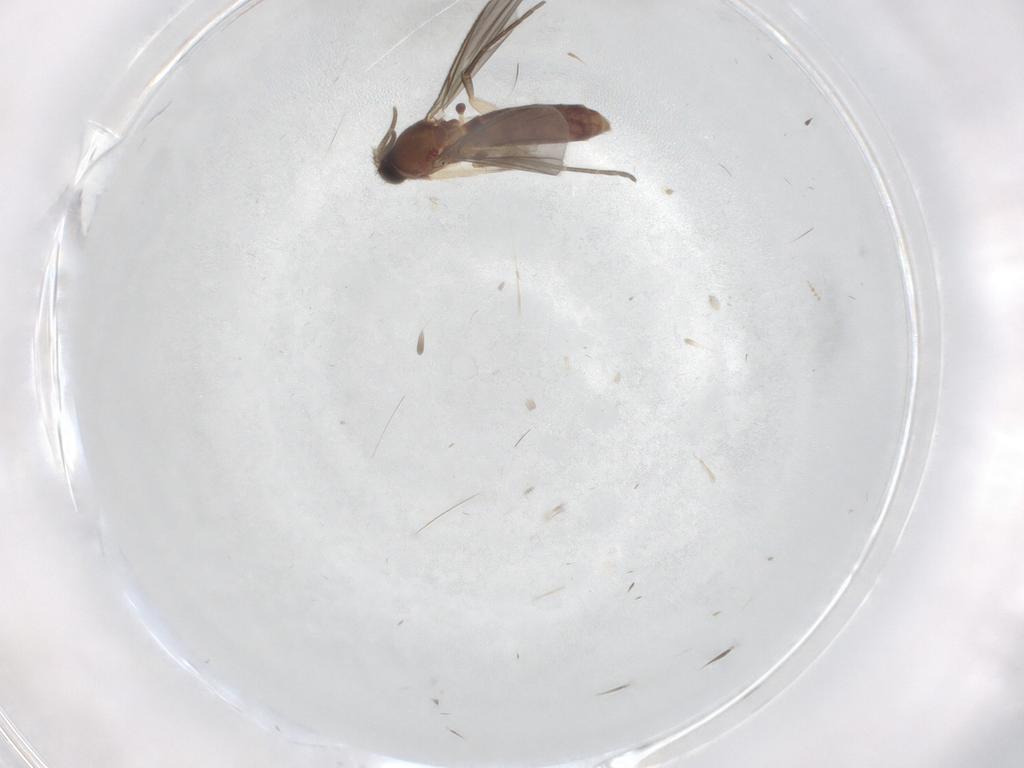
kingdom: Animalia
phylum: Arthropoda
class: Insecta
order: Diptera
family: Mycetophilidae
